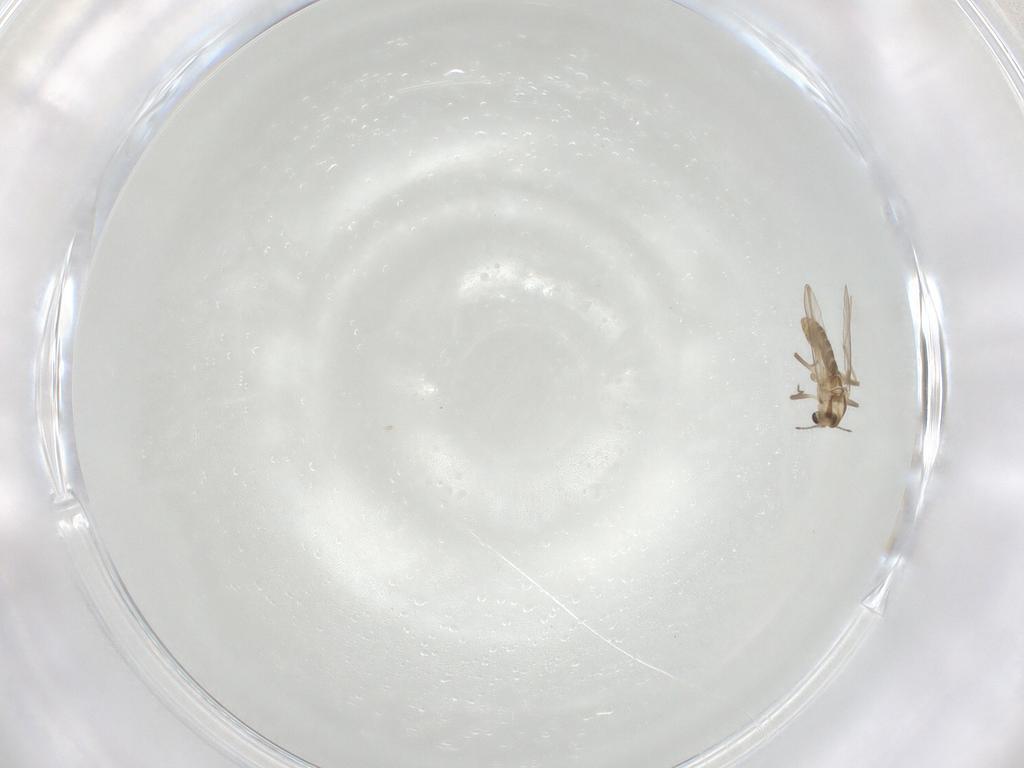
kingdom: Animalia
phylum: Arthropoda
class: Insecta
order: Diptera
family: Chironomidae
